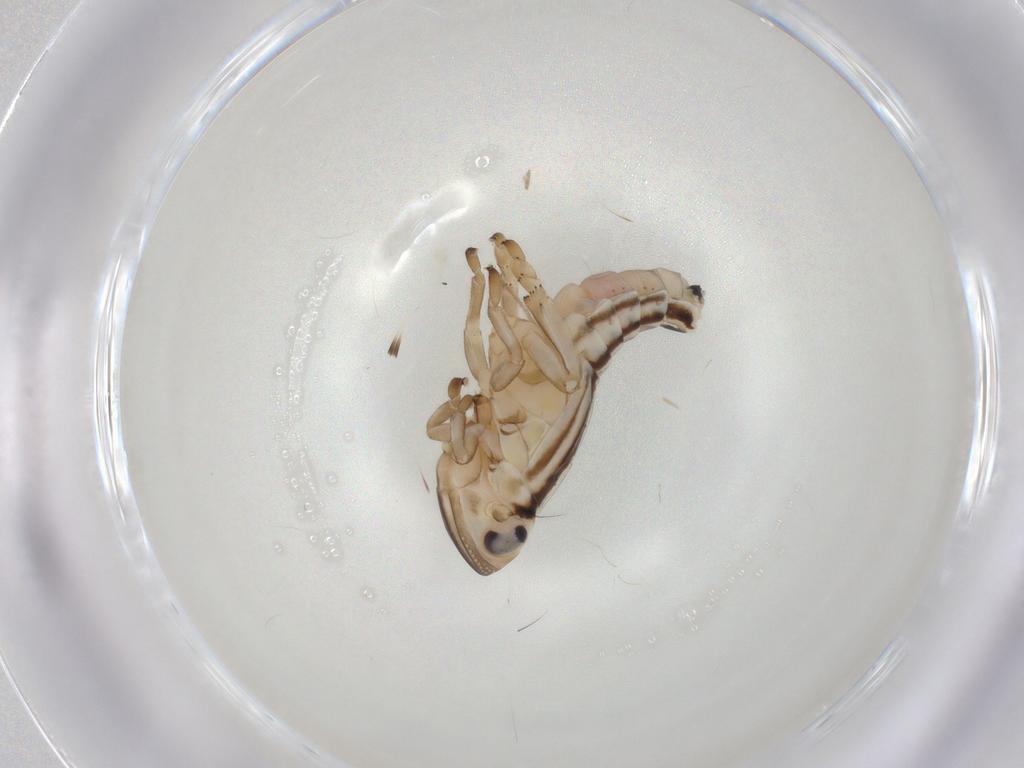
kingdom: Animalia
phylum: Arthropoda
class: Insecta
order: Hemiptera
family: Fulgoroidea_incertae_sedis
